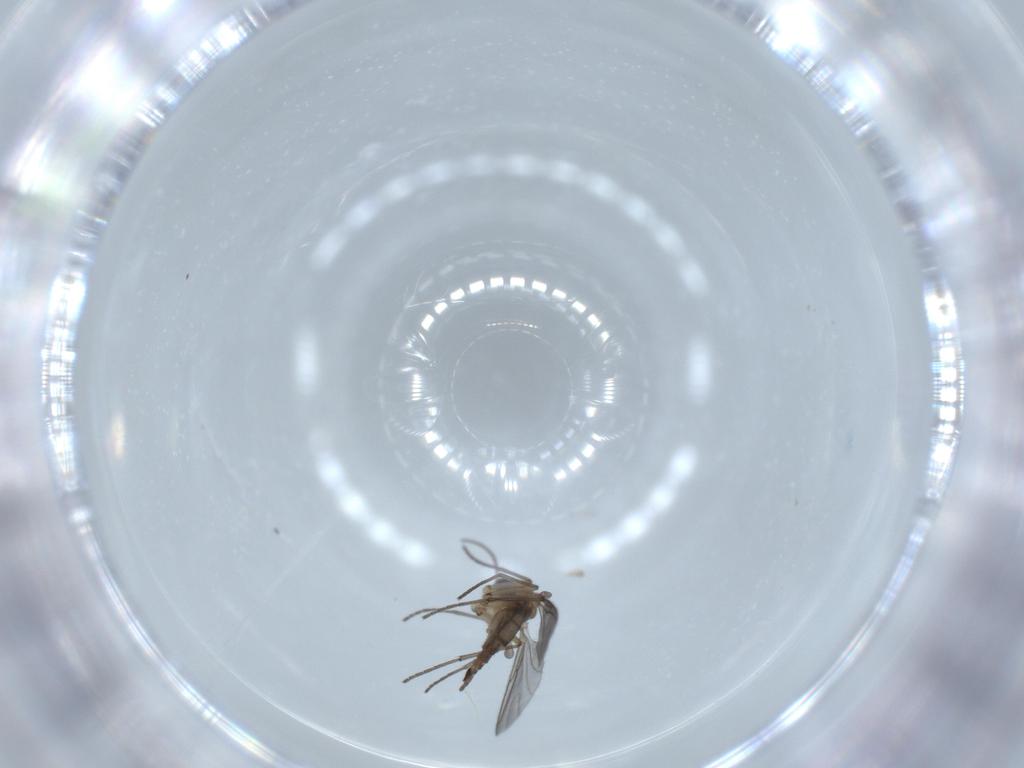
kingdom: Animalia
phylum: Arthropoda
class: Insecta
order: Diptera
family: Sciaridae
